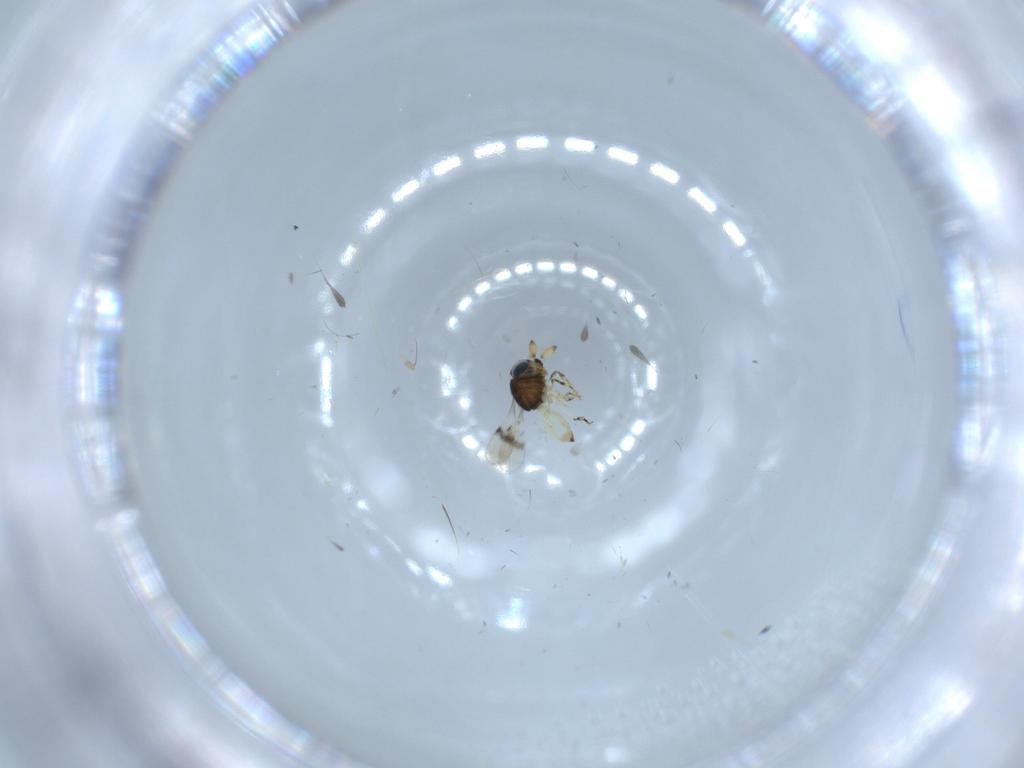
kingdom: Animalia
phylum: Arthropoda
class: Insecta
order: Hymenoptera
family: Scelionidae
